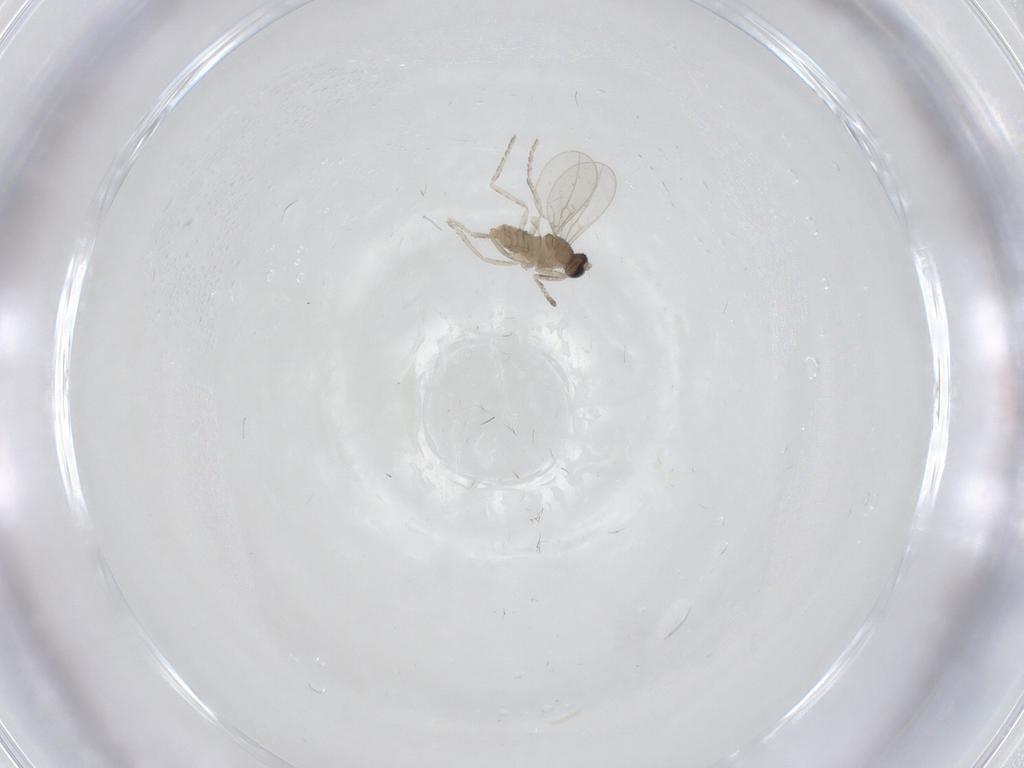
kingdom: Animalia
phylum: Arthropoda
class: Insecta
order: Diptera
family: Cecidomyiidae
